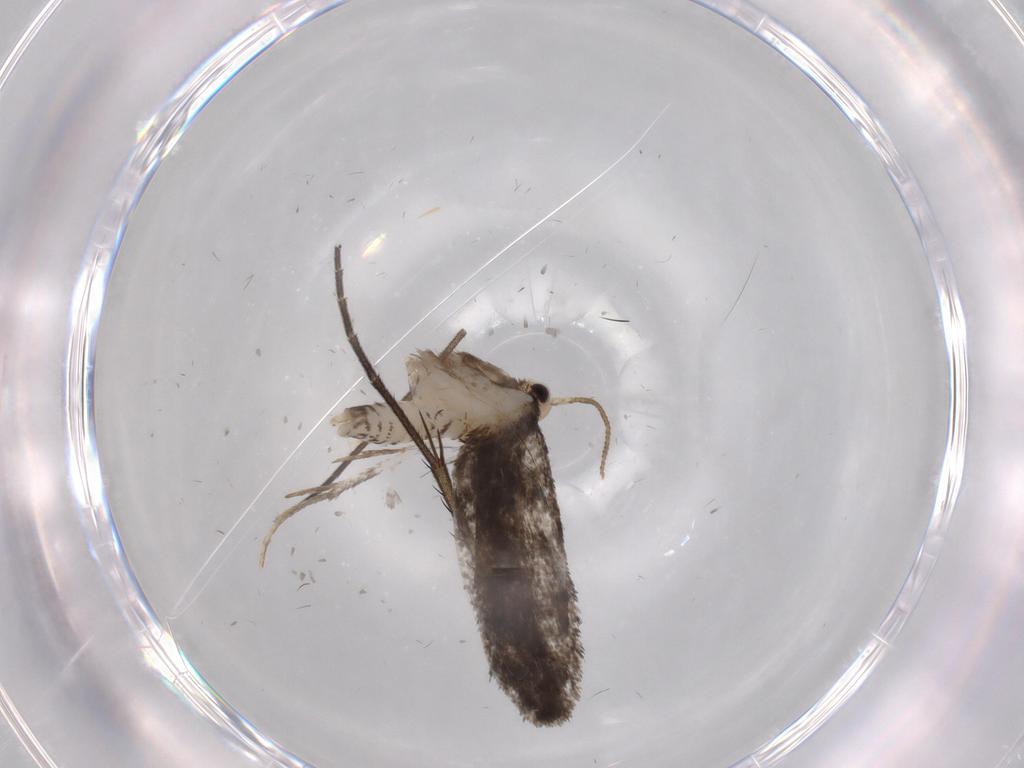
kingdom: Animalia
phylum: Arthropoda
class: Insecta
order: Lepidoptera
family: Psychidae
